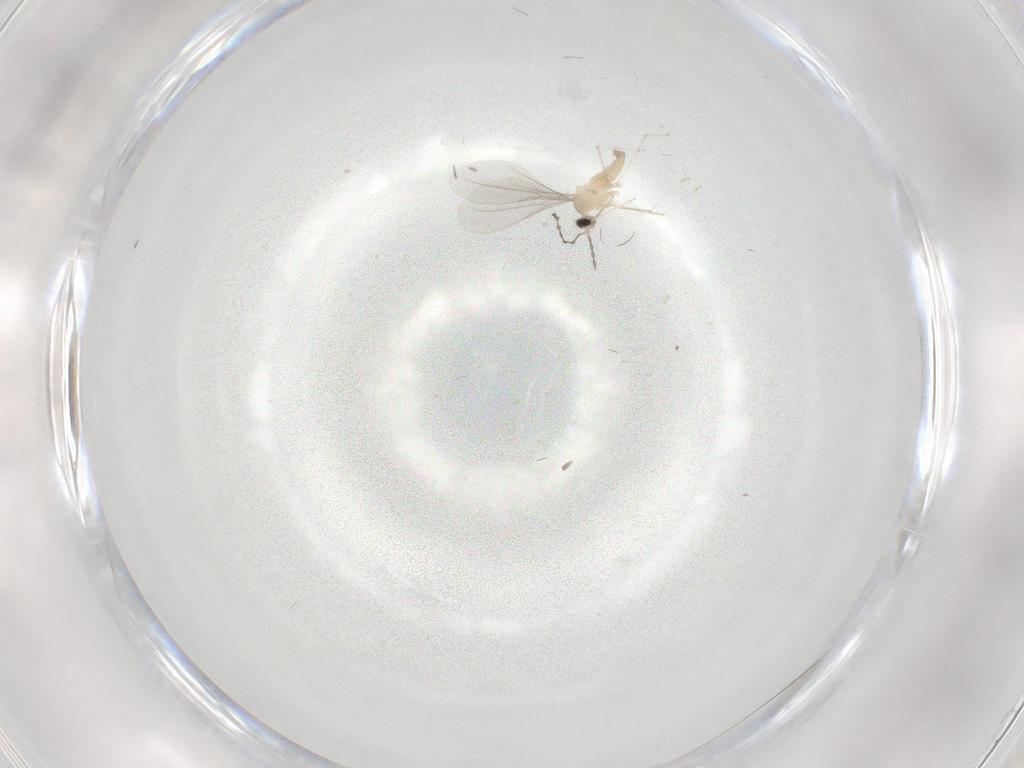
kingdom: Animalia
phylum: Arthropoda
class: Insecta
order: Diptera
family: Cecidomyiidae
